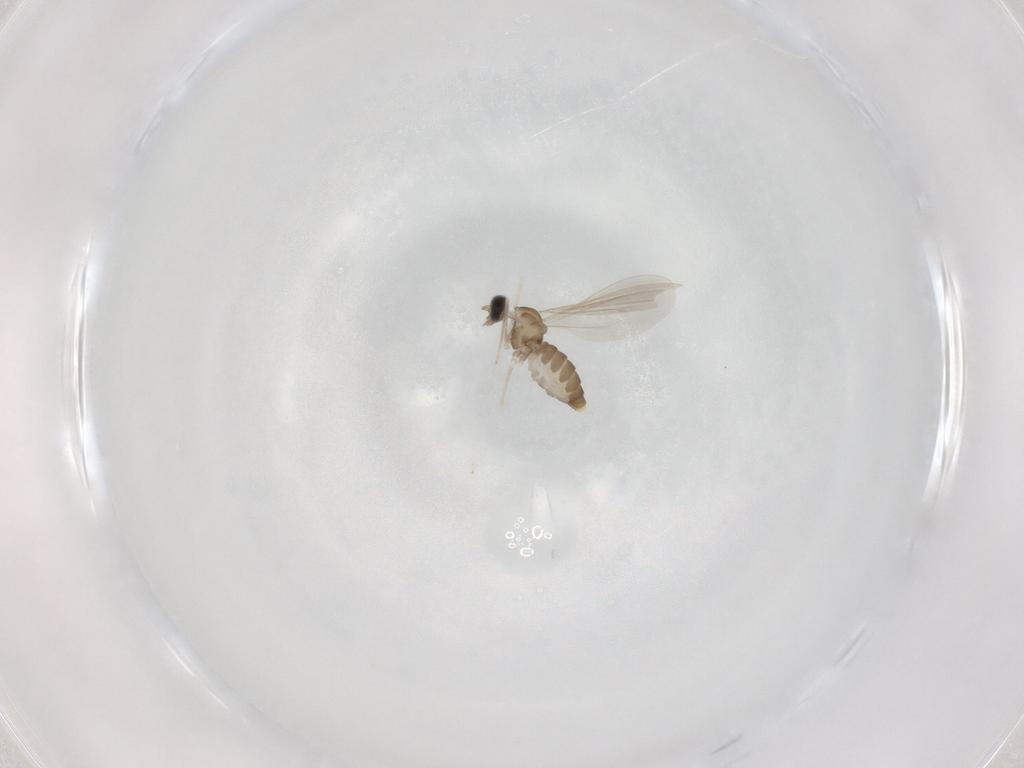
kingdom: Animalia
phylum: Arthropoda
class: Insecta
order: Diptera
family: Cecidomyiidae
